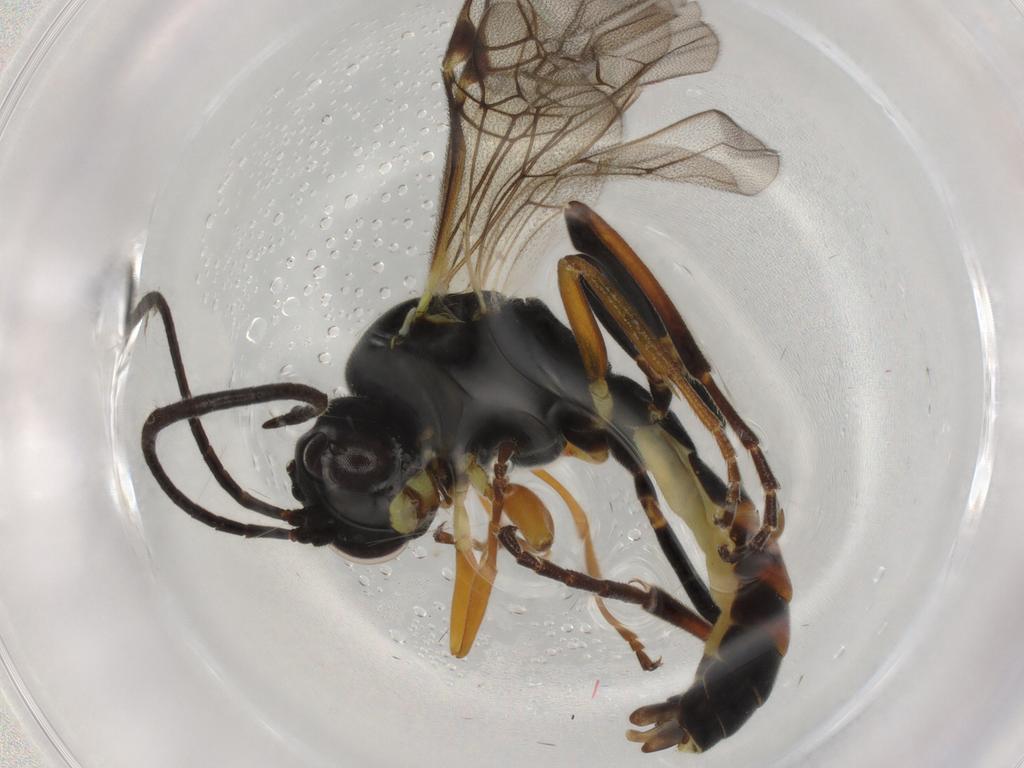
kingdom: Animalia
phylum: Arthropoda
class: Insecta
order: Hymenoptera
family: Ichneumonidae
